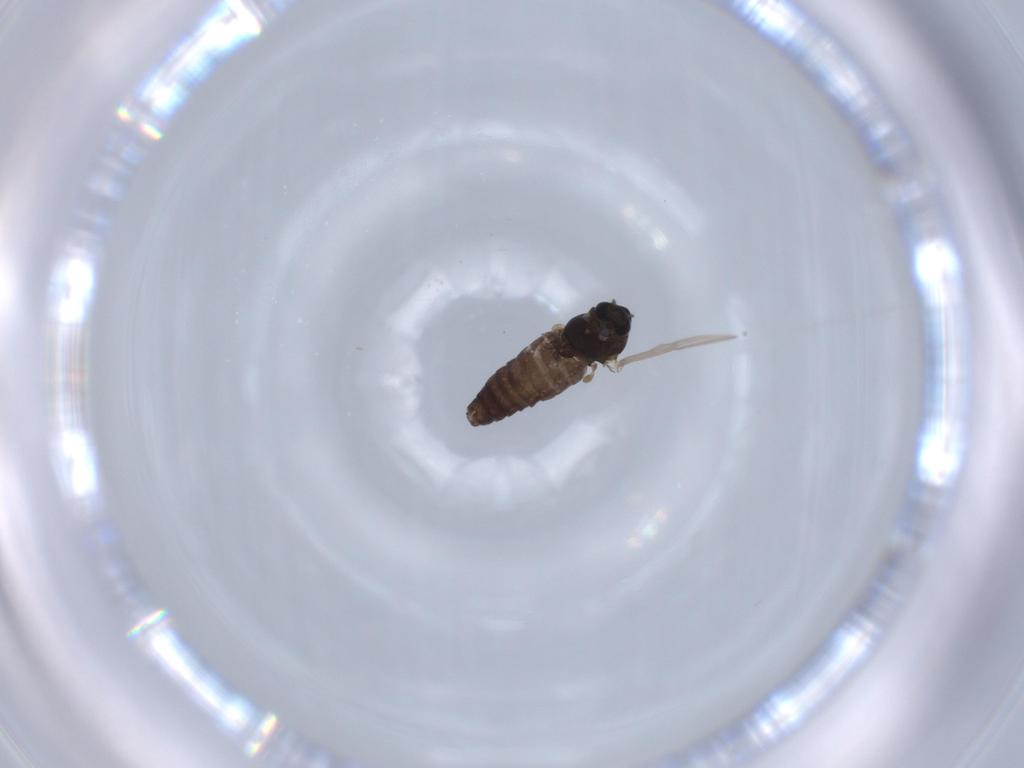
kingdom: Animalia
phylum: Arthropoda
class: Insecta
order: Diptera
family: Chironomidae
